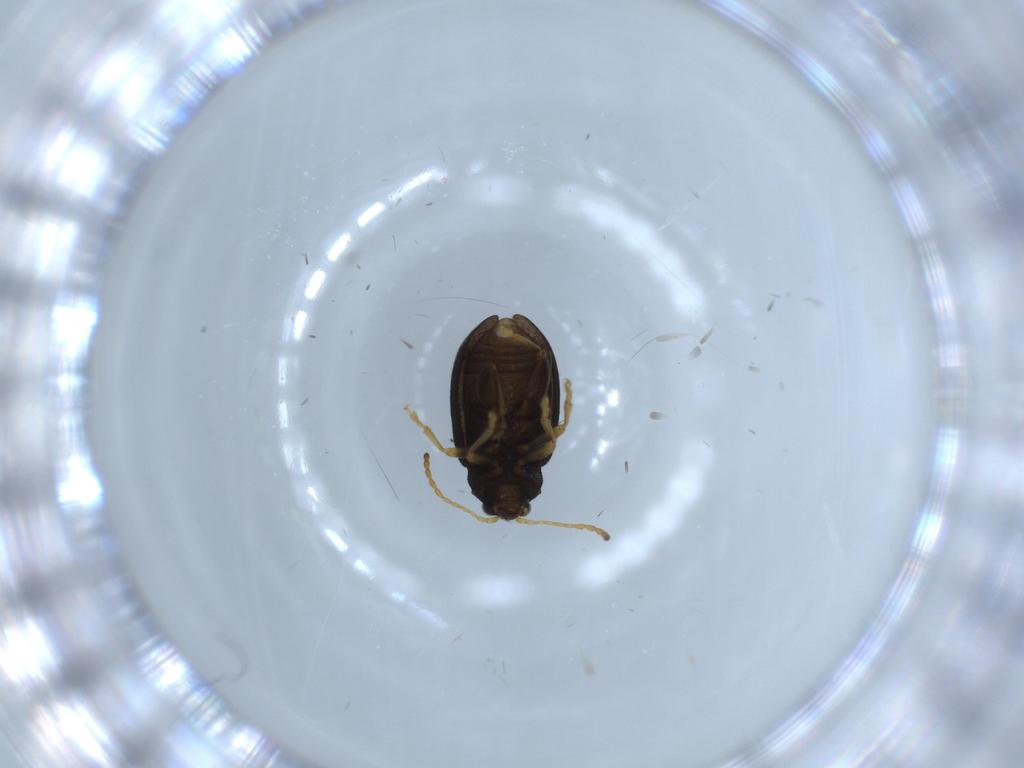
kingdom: Animalia
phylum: Arthropoda
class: Insecta
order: Coleoptera
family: Chrysomelidae
